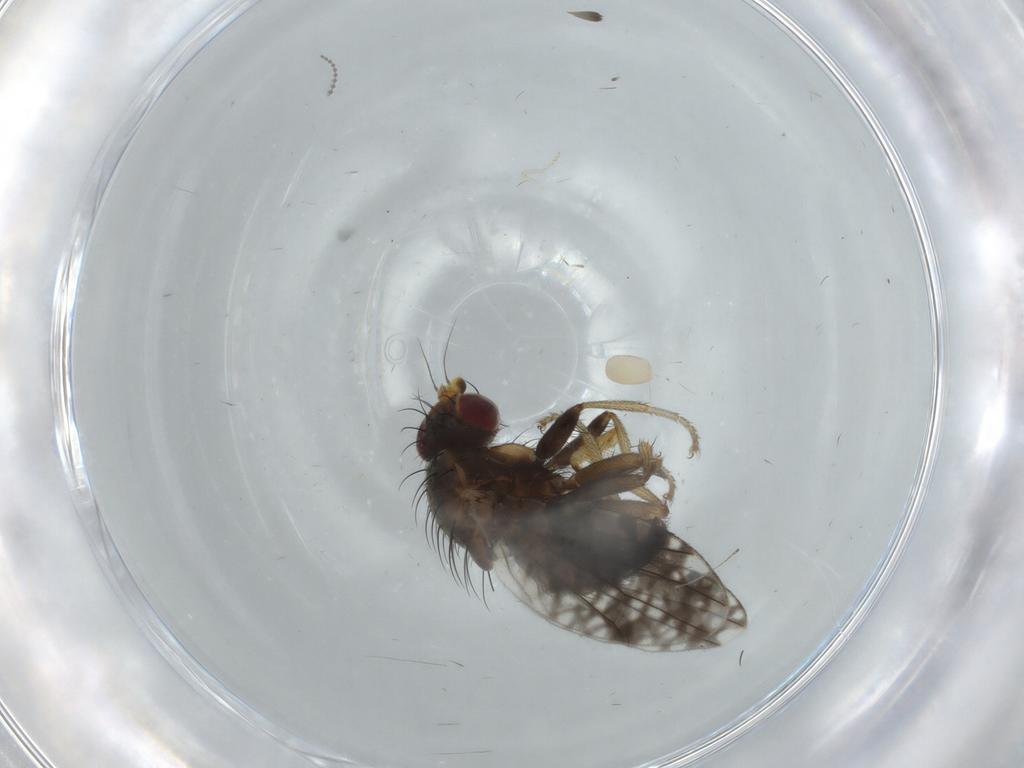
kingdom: Animalia
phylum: Arthropoda
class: Insecta
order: Diptera
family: Tephritidae
